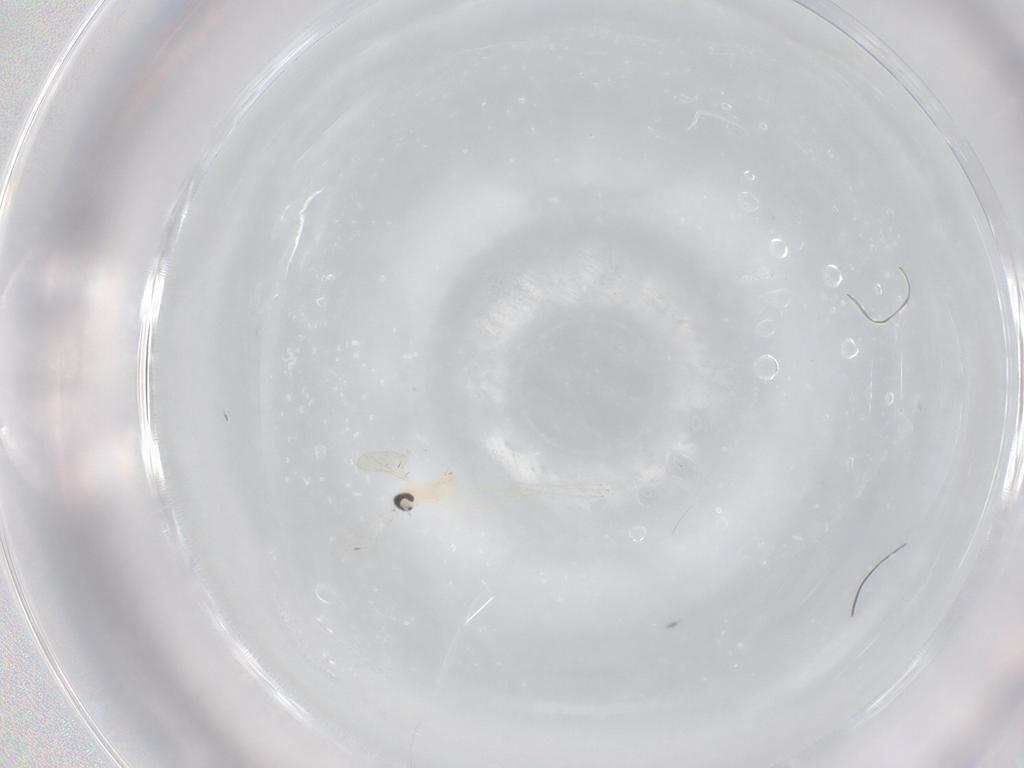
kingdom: Animalia
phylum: Arthropoda
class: Insecta
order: Diptera
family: Cecidomyiidae
